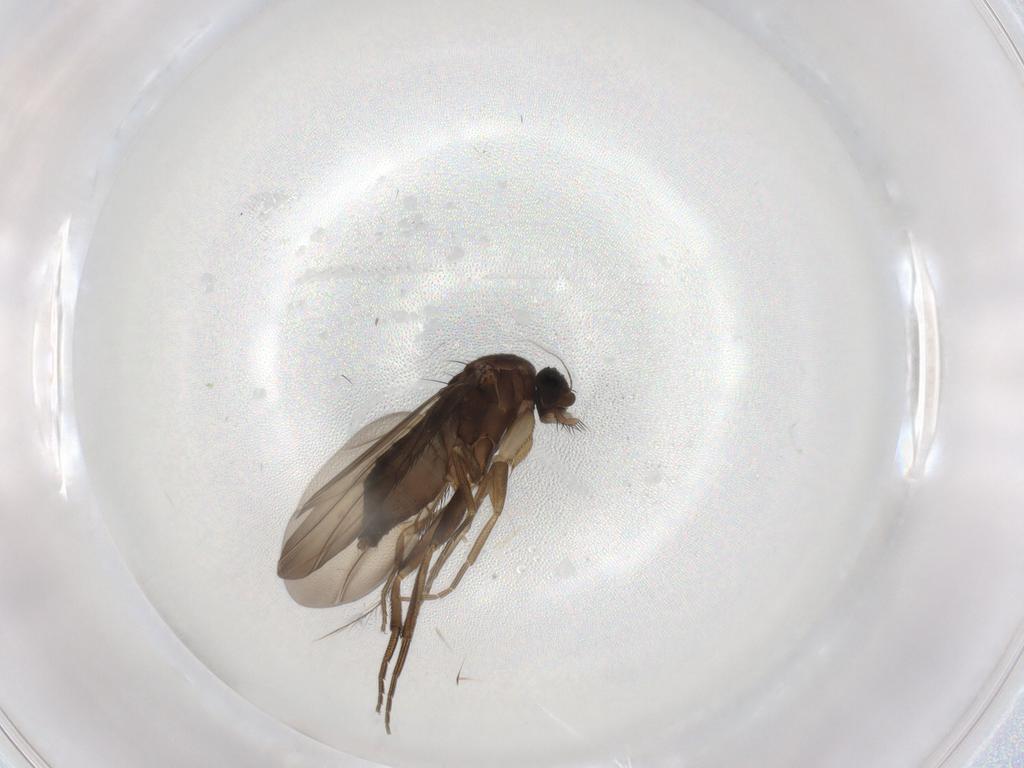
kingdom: Animalia
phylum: Arthropoda
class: Insecta
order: Diptera
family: Phoridae
